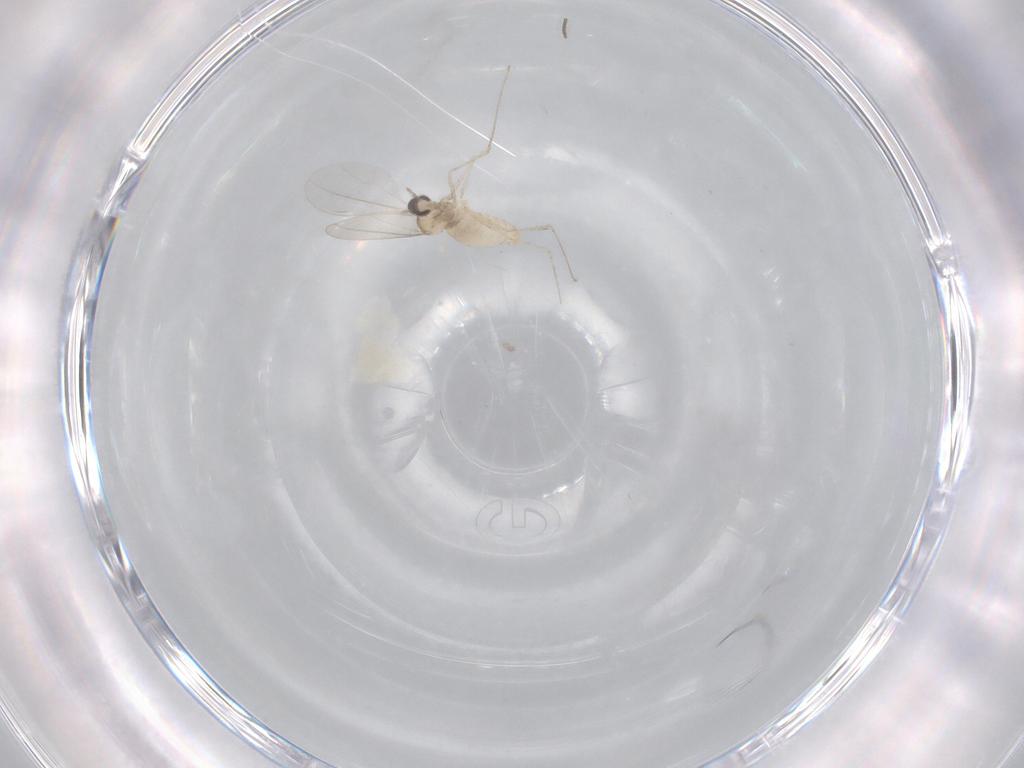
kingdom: Animalia
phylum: Arthropoda
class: Insecta
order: Diptera
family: Cecidomyiidae
